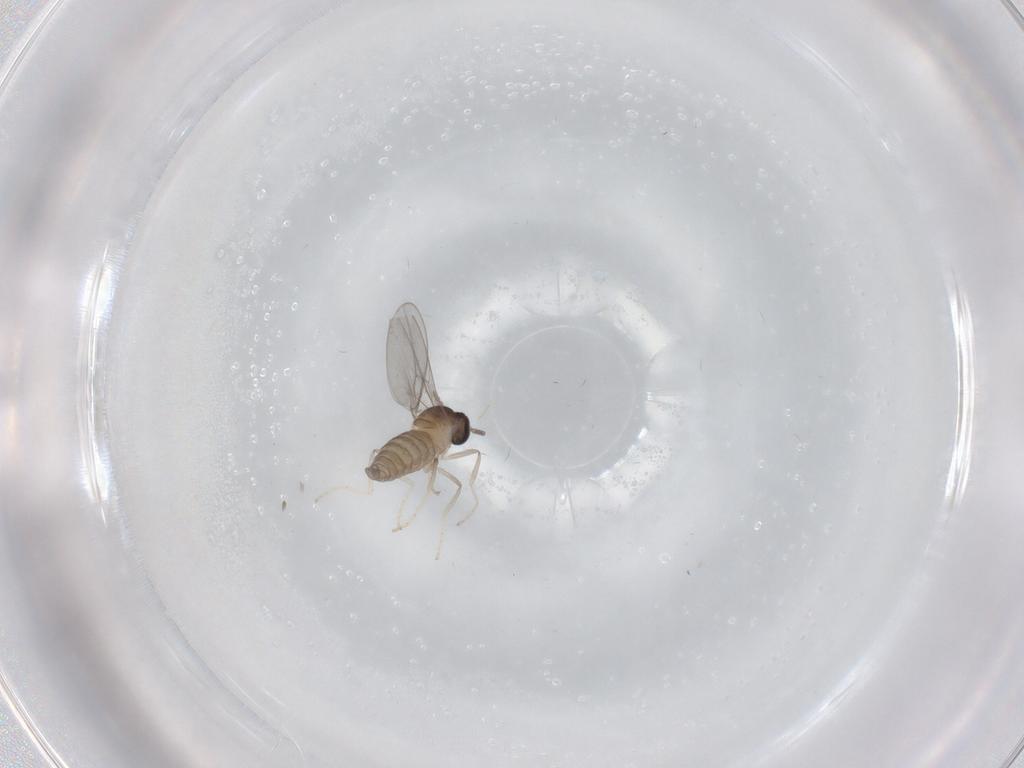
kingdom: Animalia
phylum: Arthropoda
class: Insecta
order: Diptera
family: Cecidomyiidae
